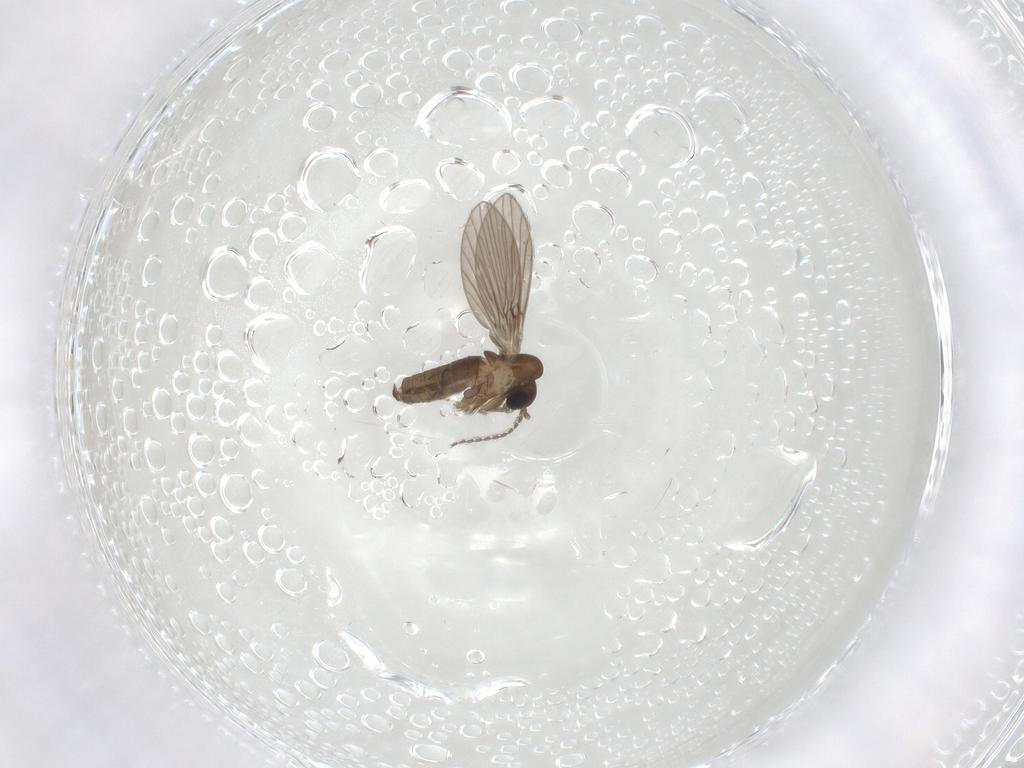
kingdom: Animalia
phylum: Arthropoda
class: Insecta
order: Diptera
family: Psychodidae
